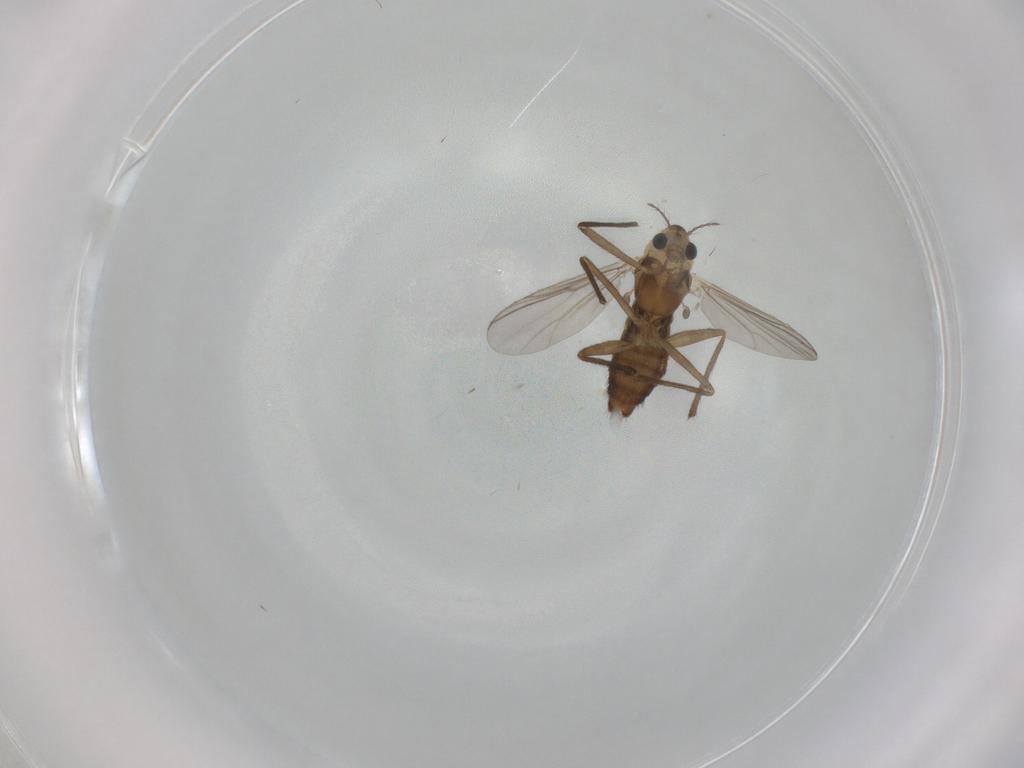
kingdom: Animalia
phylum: Arthropoda
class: Insecta
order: Diptera
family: Chironomidae
